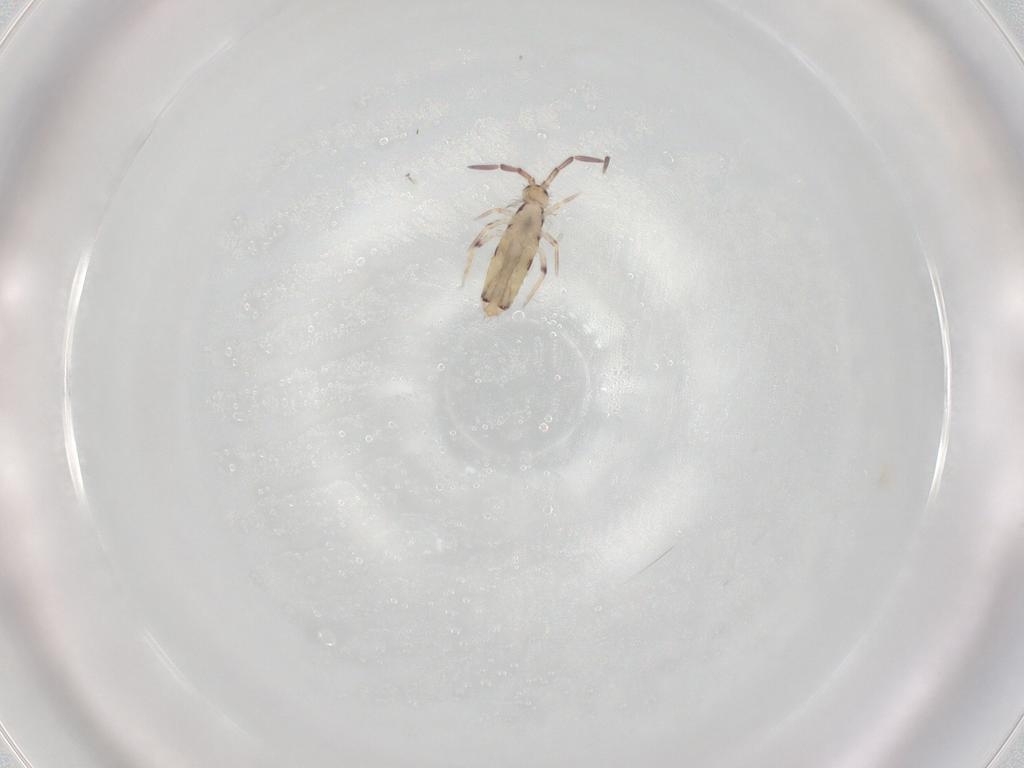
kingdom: Animalia
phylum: Arthropoda
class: Collembola
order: Entomobryomorpha
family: Entomobryidae
